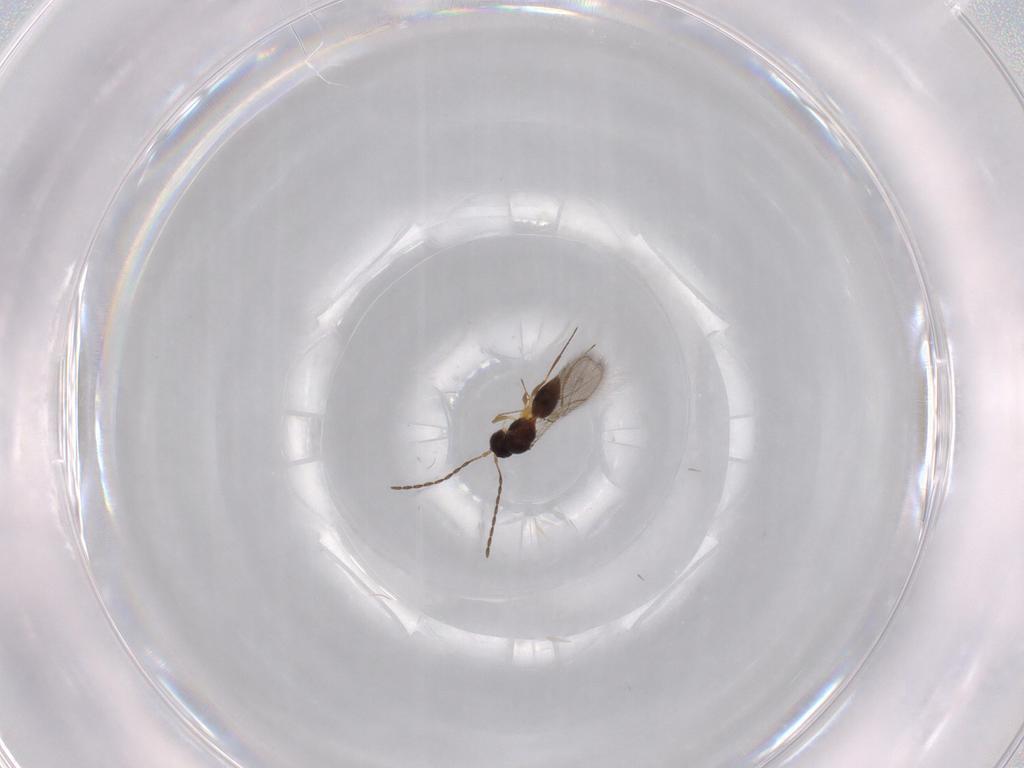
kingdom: Animalia
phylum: Arthropoda
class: Insecta
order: Hymenoptera
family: Figitidae
